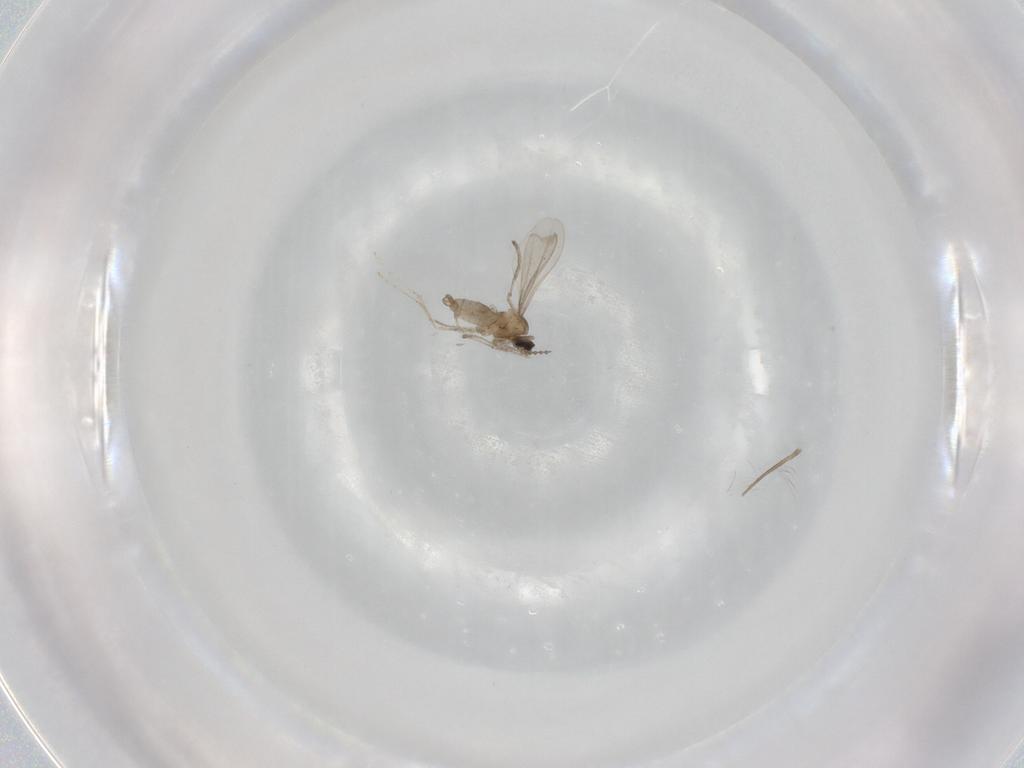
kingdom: Animalia
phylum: Arthropoda
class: Insecta
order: Diptera
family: Cecidomyiidae
